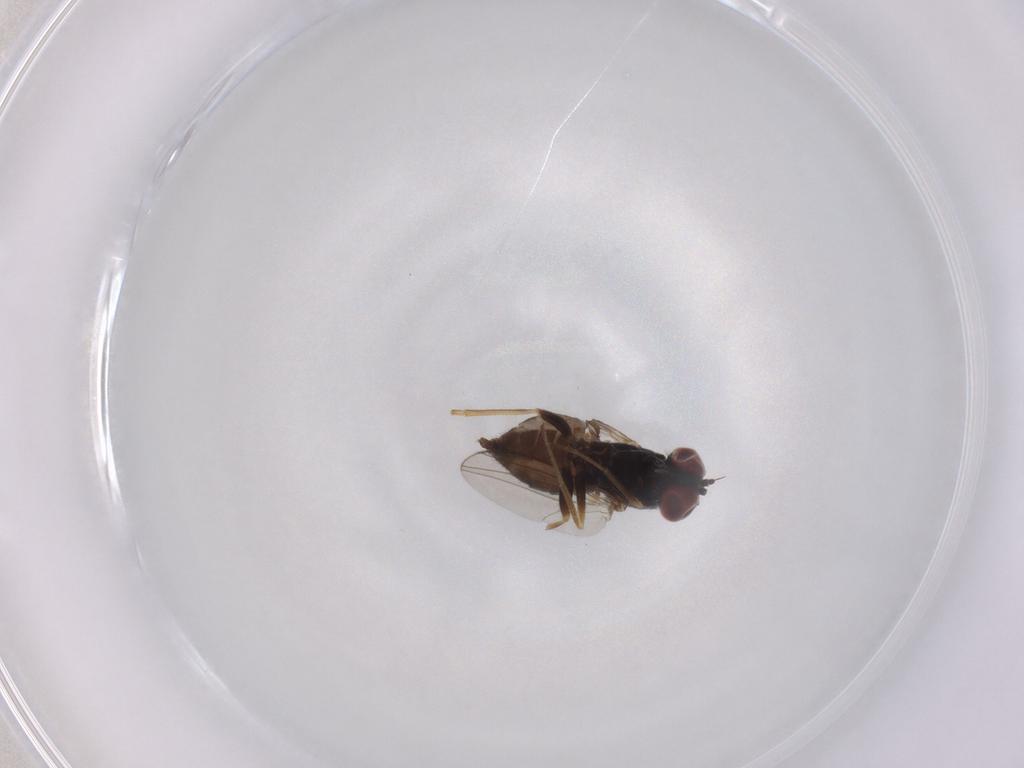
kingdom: Animalia
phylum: Arthropoda
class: Insecta
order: Diptera
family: Dolichopodidae
